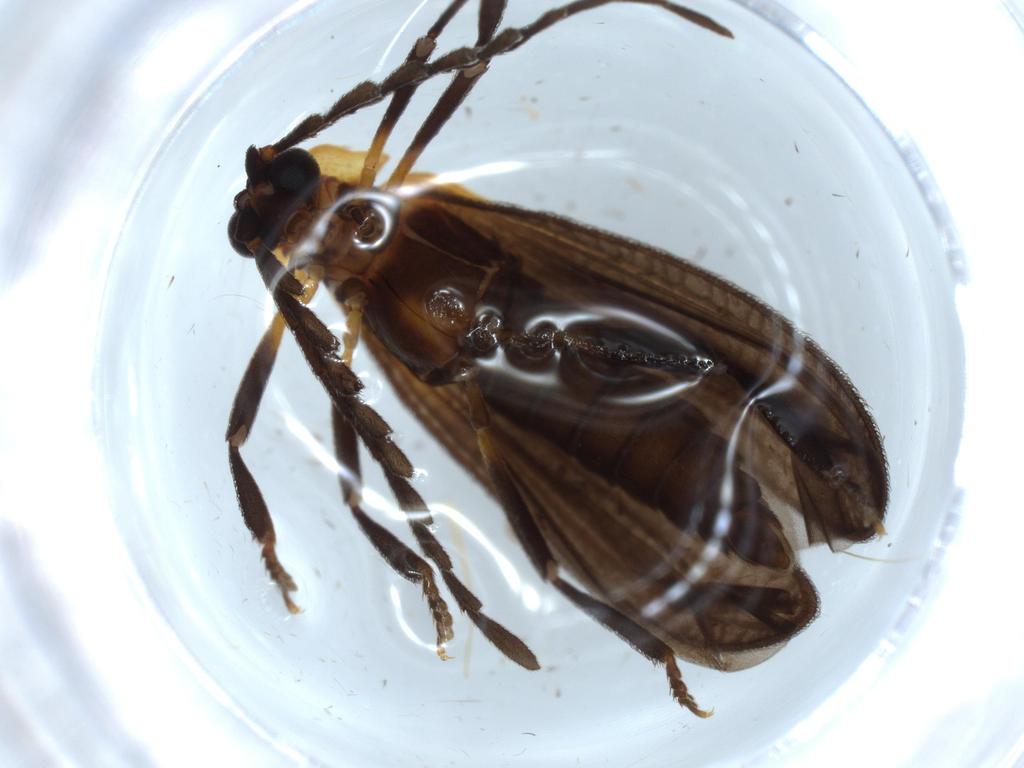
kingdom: Animalia
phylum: Arthropoda
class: Insecta
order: Coleoptera
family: Lycidae
